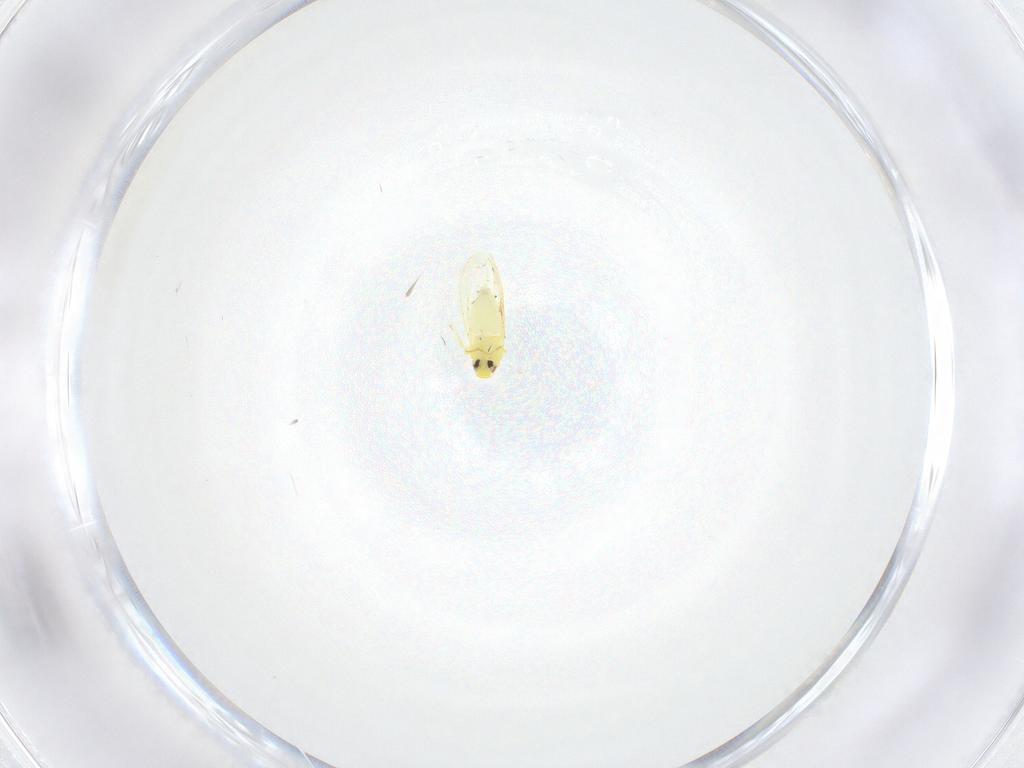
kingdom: Animalia
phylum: Arthropoda
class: Insecta
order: Hemiptera
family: Aleyrodidae
